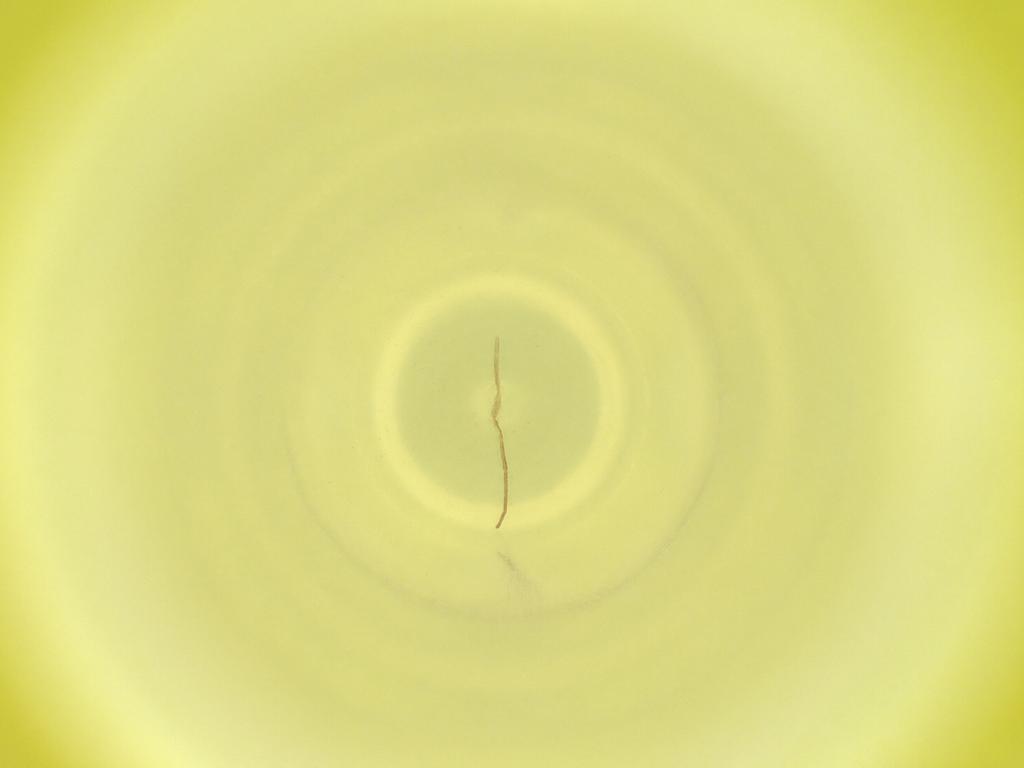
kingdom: Animalia
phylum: Arthropoda
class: Insecta
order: Diptera
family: Cecidomyiidae
